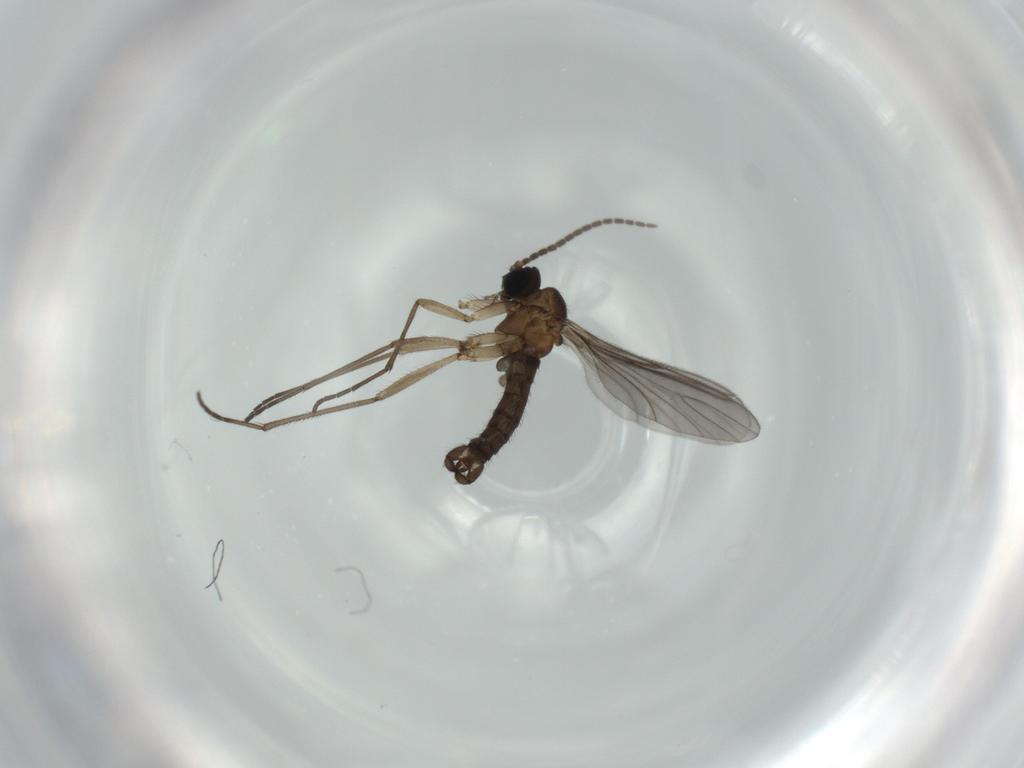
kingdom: Animalia
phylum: Arthropoda
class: Insecta
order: Diptera
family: Sciaridae
